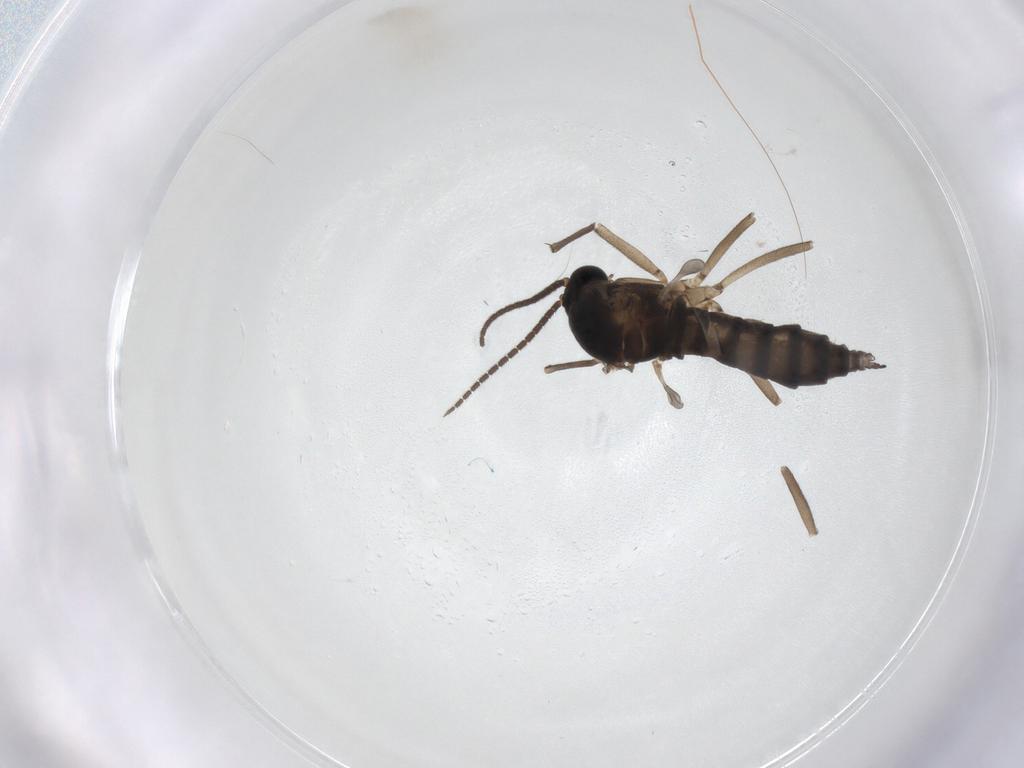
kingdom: Animalia
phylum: Arthropoda
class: Insecta
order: Diptera
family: Sciaridae
